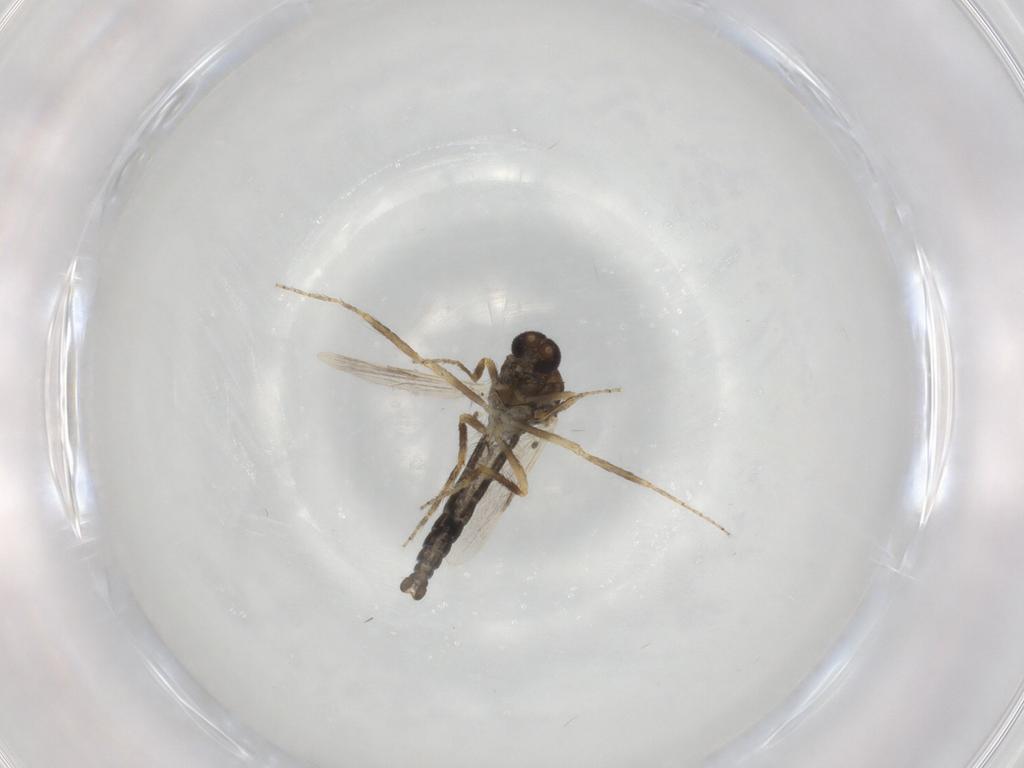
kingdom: Animalia
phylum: Arthropoda
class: Insecta
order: Diptera
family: Ceratopogonidae
